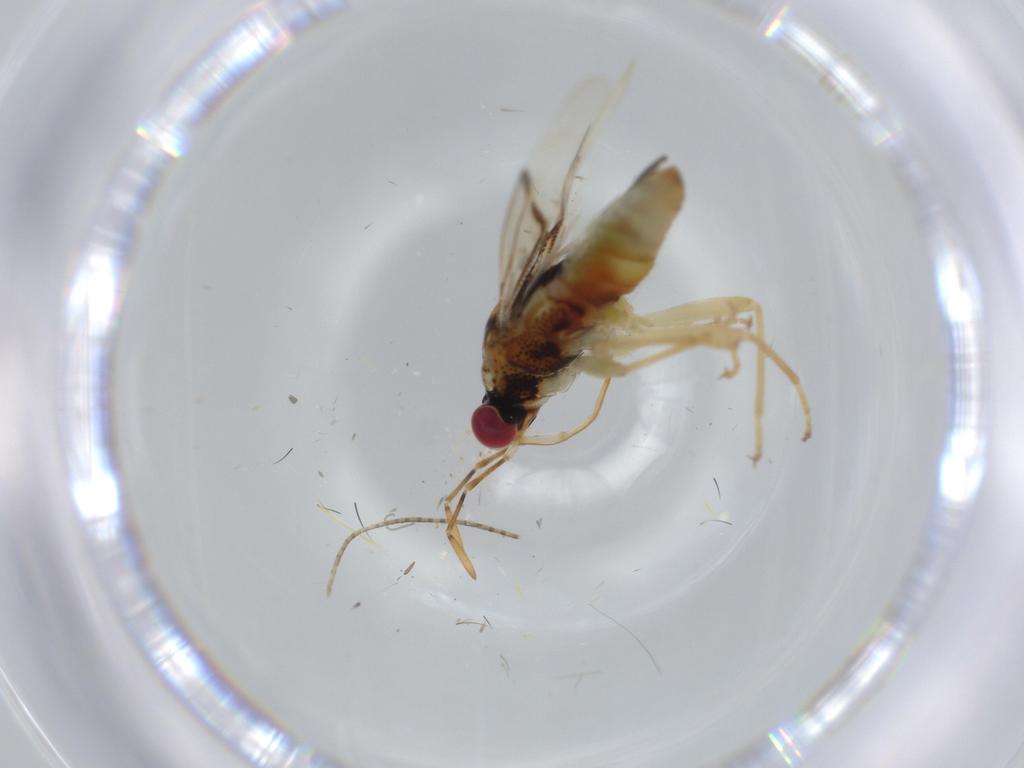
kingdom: Animalia
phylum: Arthropoda
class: Insecta
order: Hemiptera
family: Geocoridae
